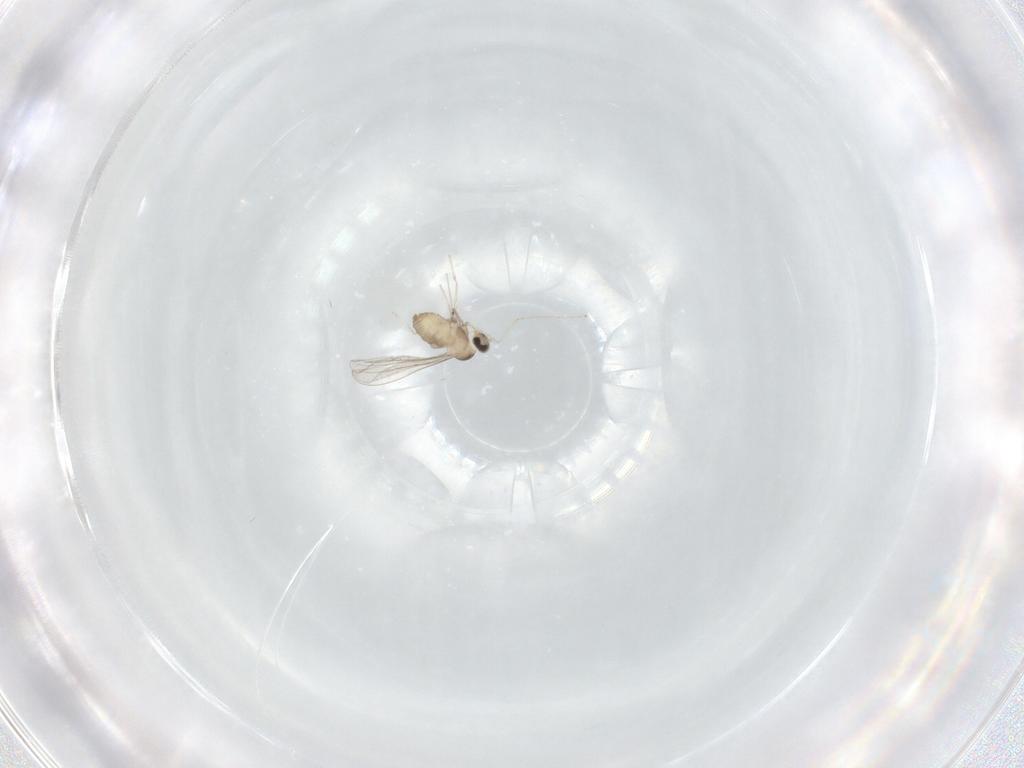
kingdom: Animalia
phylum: Arthropoda
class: Insecta
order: Diptera
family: Cecidomyiidae
